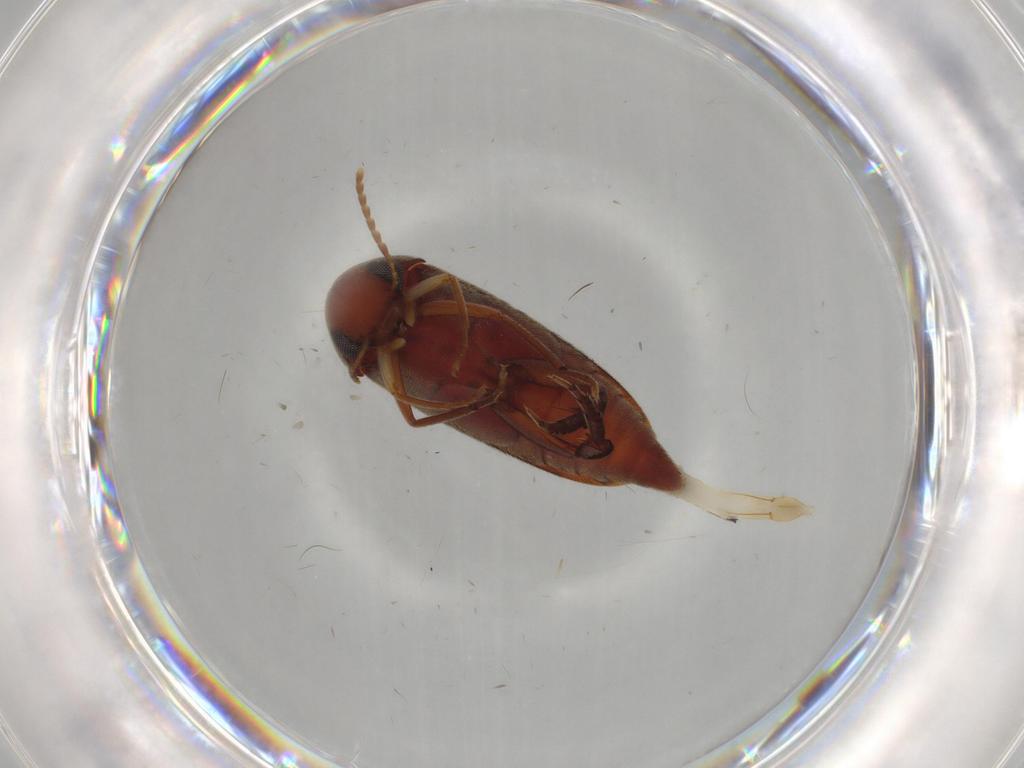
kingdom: Animalia
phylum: Arthropoda
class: Insecta
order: Coleoptera
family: Mordellidae
